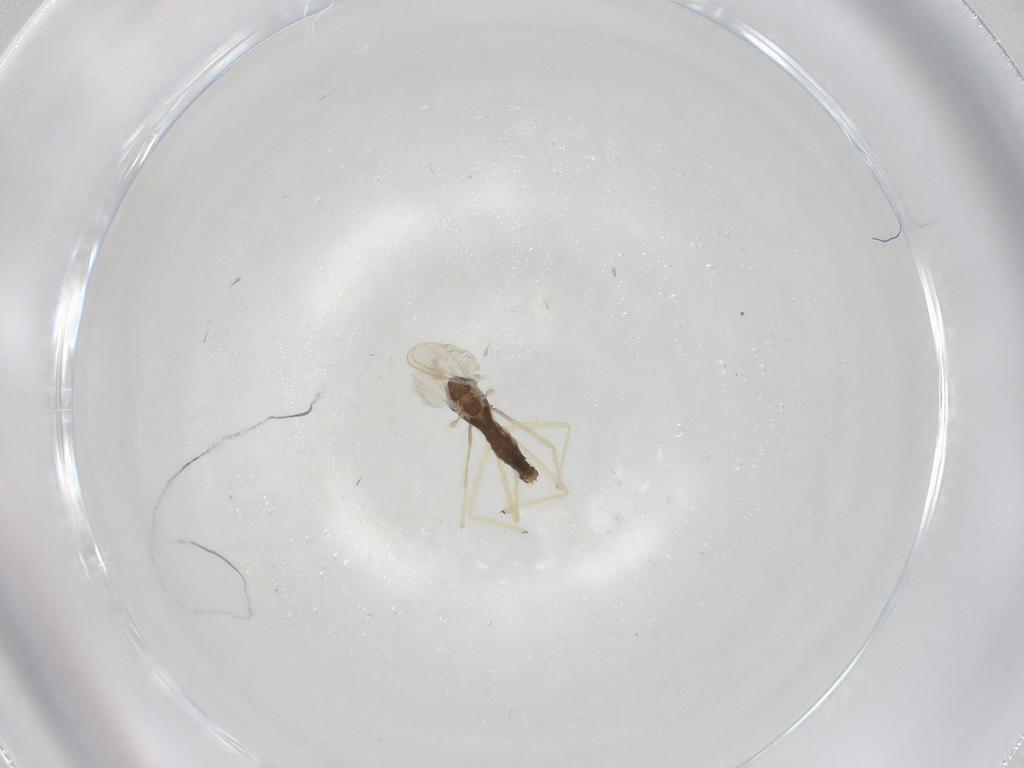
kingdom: Animalia
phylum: Arthropoda
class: Insecta
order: Diptera
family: Chironomidae
